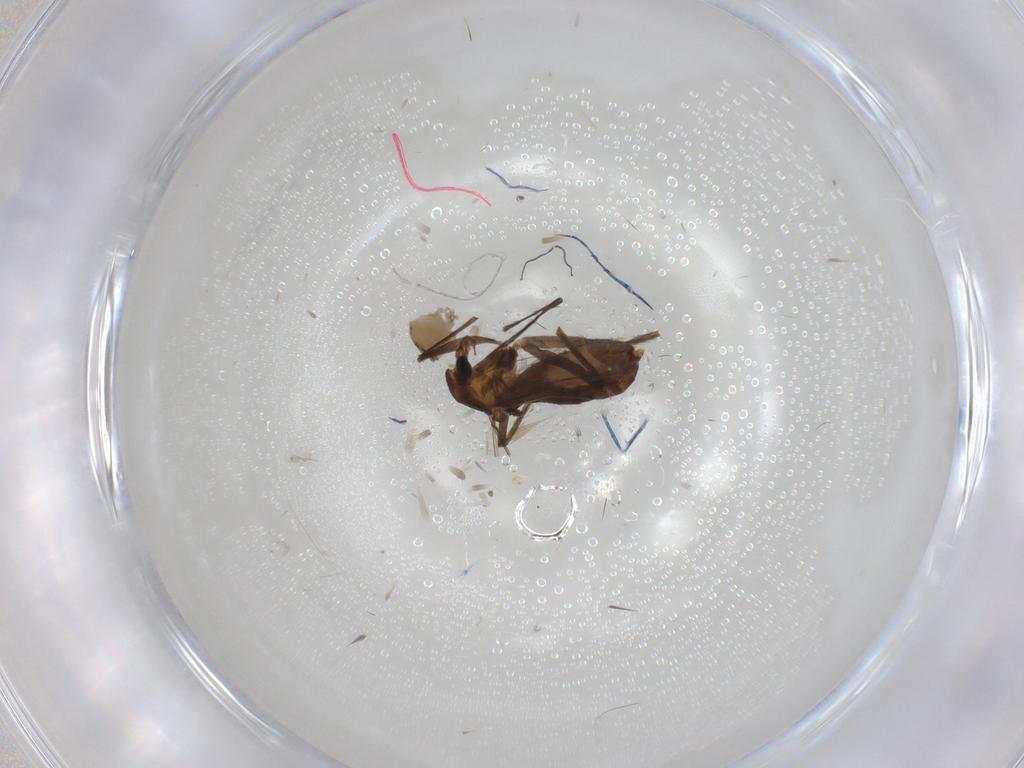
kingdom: Animalia
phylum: Arthropoda
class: Insecta
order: Diptera
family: Chironomidae
